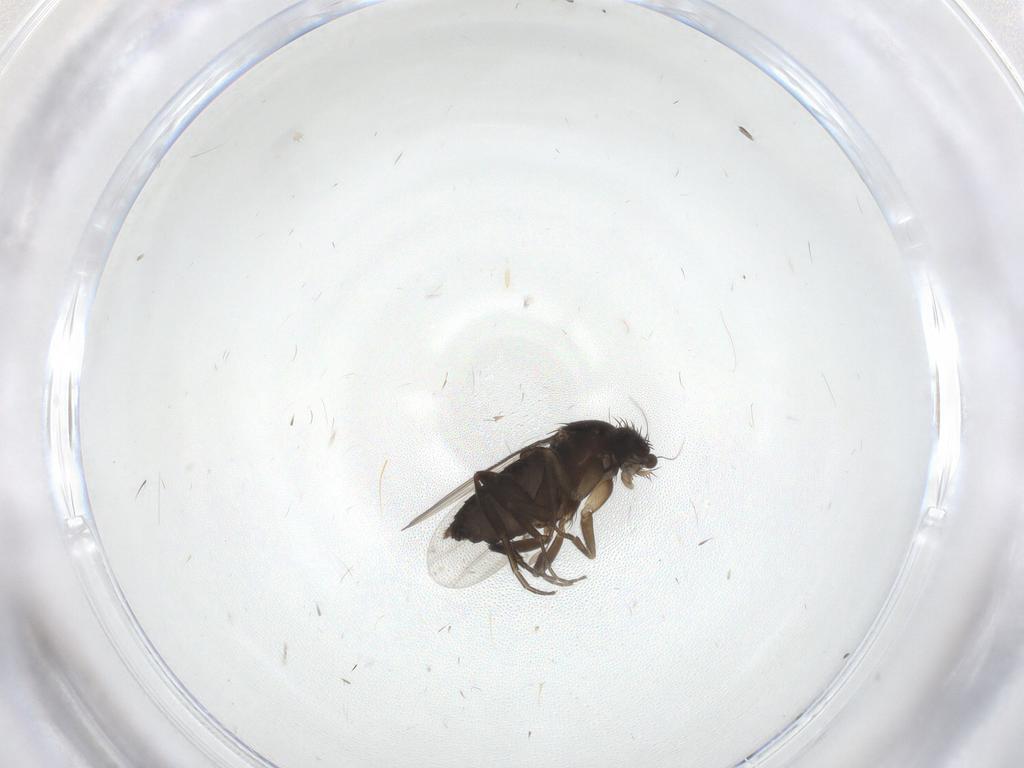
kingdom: Animalia
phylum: Arthropoda
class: Insecta
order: Diptera
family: Phoridae
